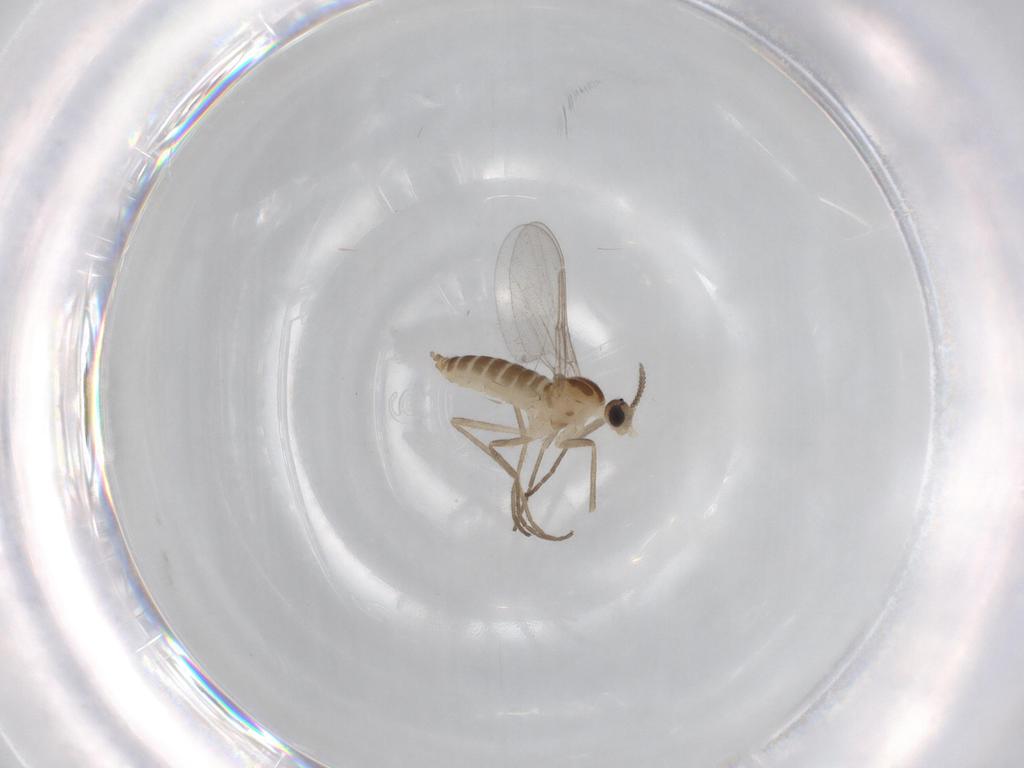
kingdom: Animalia
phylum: Arthropoda
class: Insecta
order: Diptera
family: Cecidomyiidae
